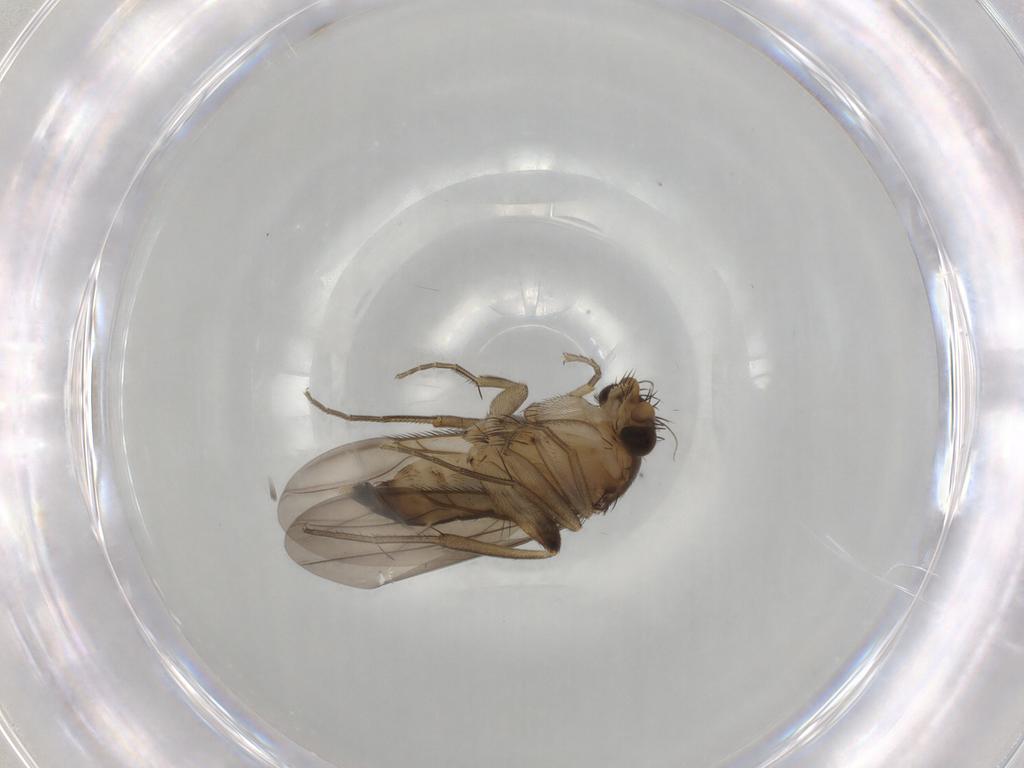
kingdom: Animalia
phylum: Arthropoda
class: Insecta
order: Diptera
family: Phoridae
